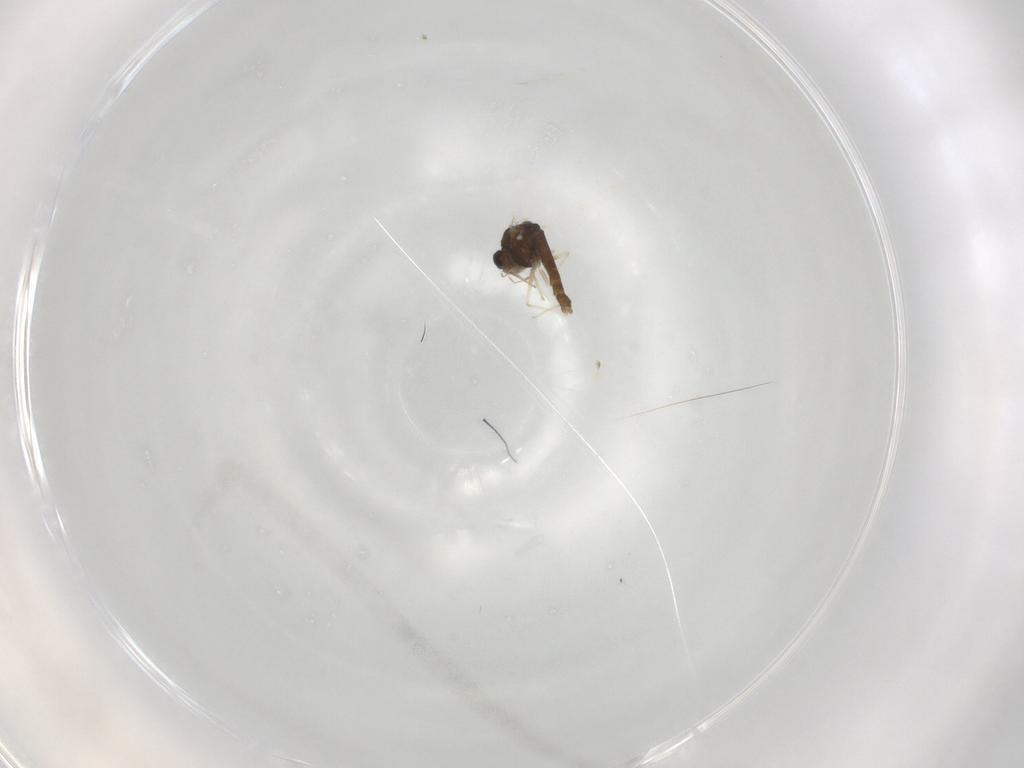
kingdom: Animalia
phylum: Arthropoda
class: Insecta
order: Diptera
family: Chironomidae
